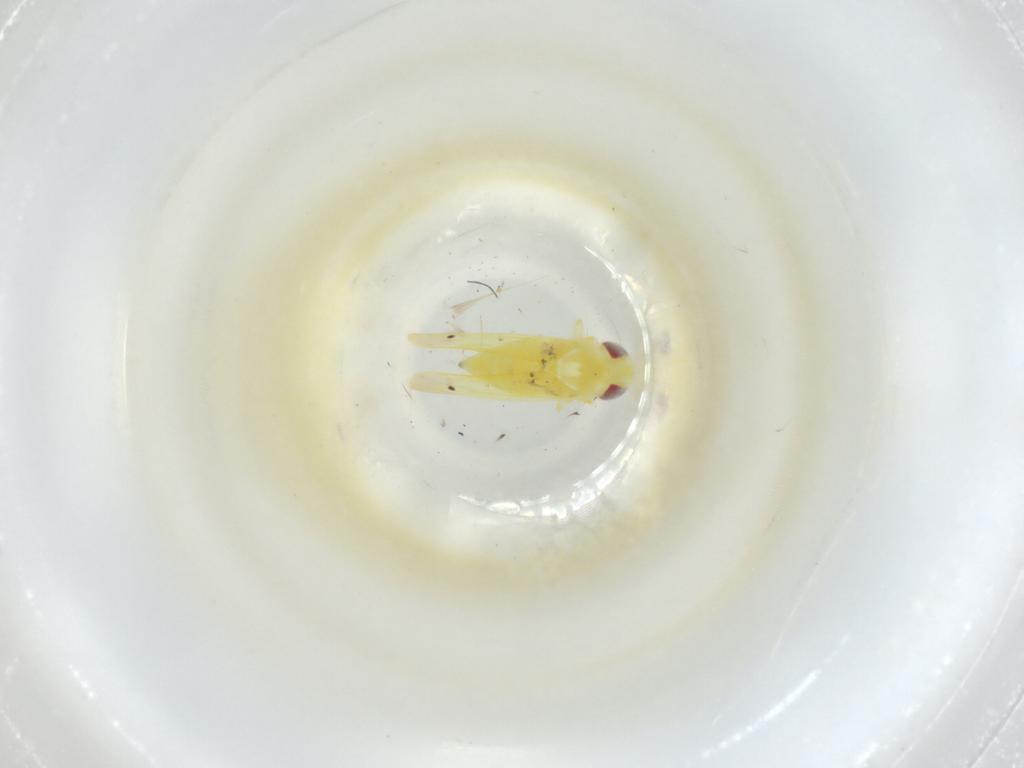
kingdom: Animalia
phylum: Arthropoda
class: Insecta
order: Hemiptera
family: Cicadellidae
